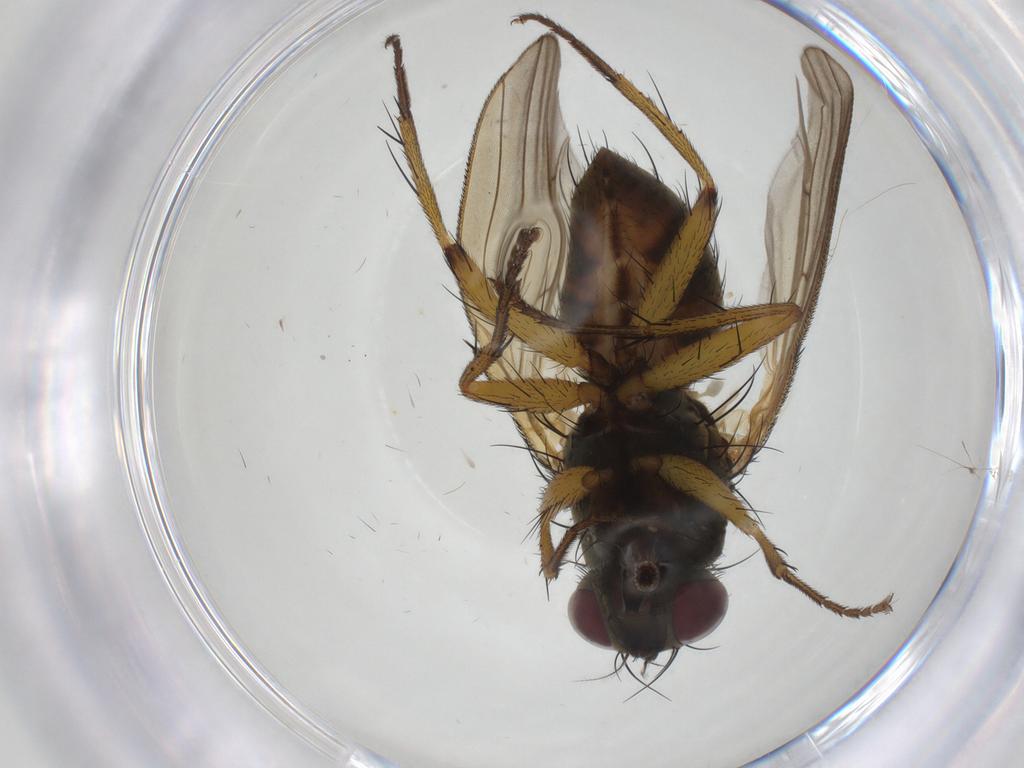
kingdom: Animalia
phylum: Arthropoda
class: Insecta
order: Diptera
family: Muscidae
